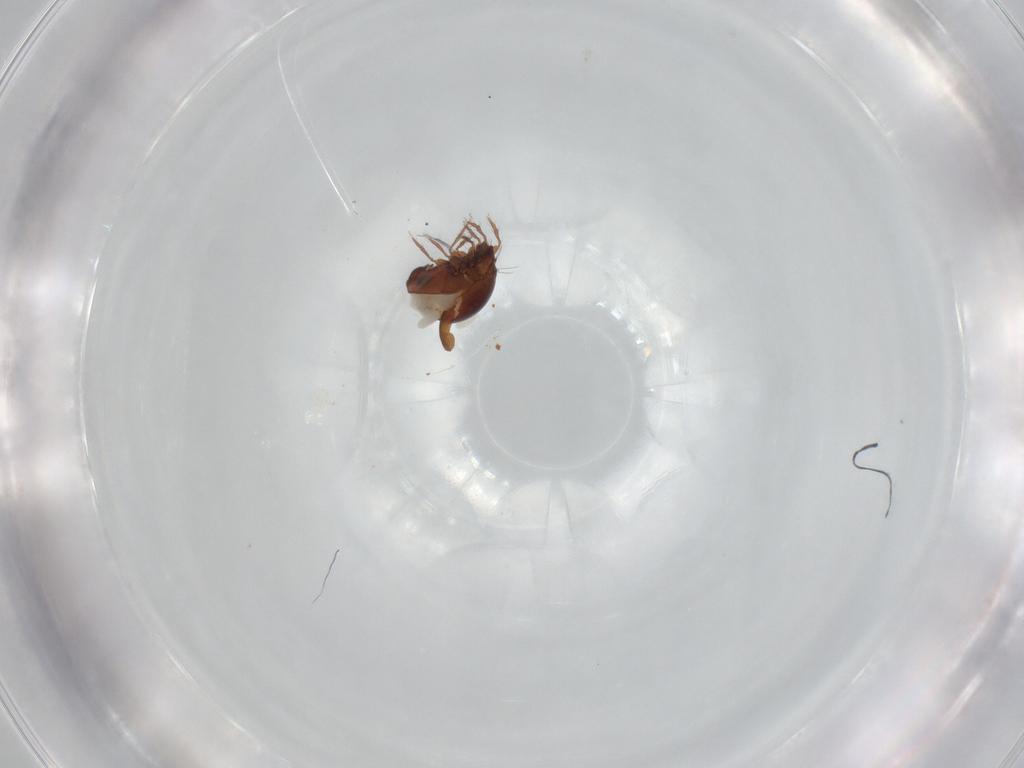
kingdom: Animalia
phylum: Arthropoda
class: Arachnida
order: Sarcoptiformes
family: Mochlozetidae
